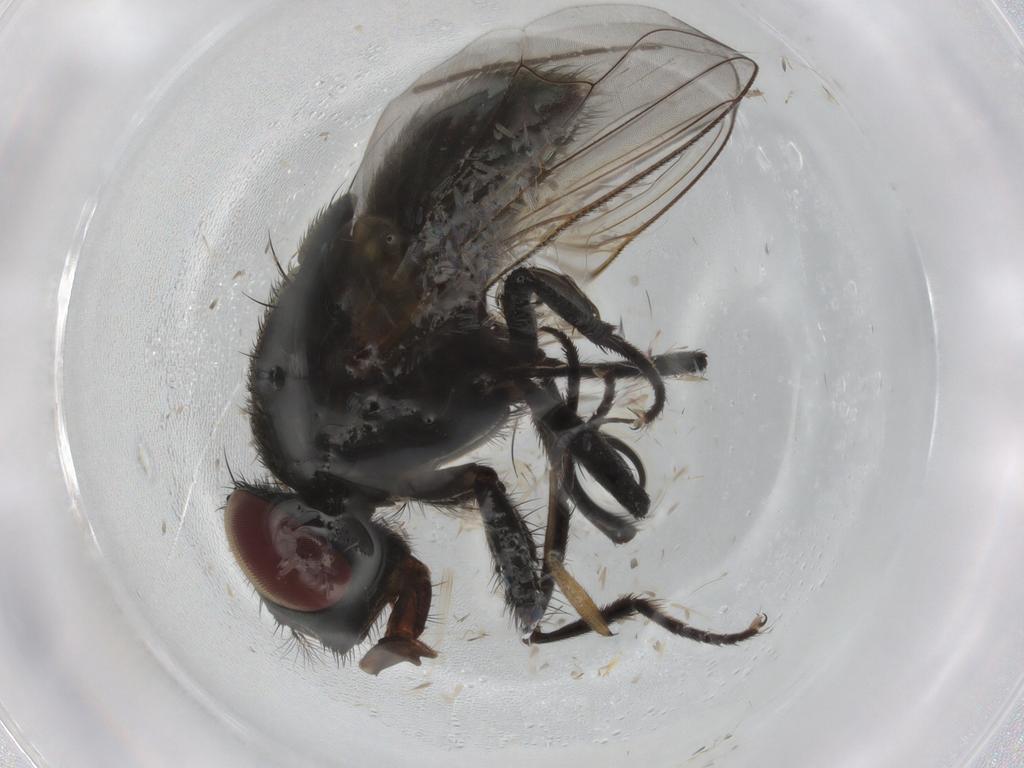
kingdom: Animalia
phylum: Arthropoda
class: Insecta
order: Diptera
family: Muscidae
